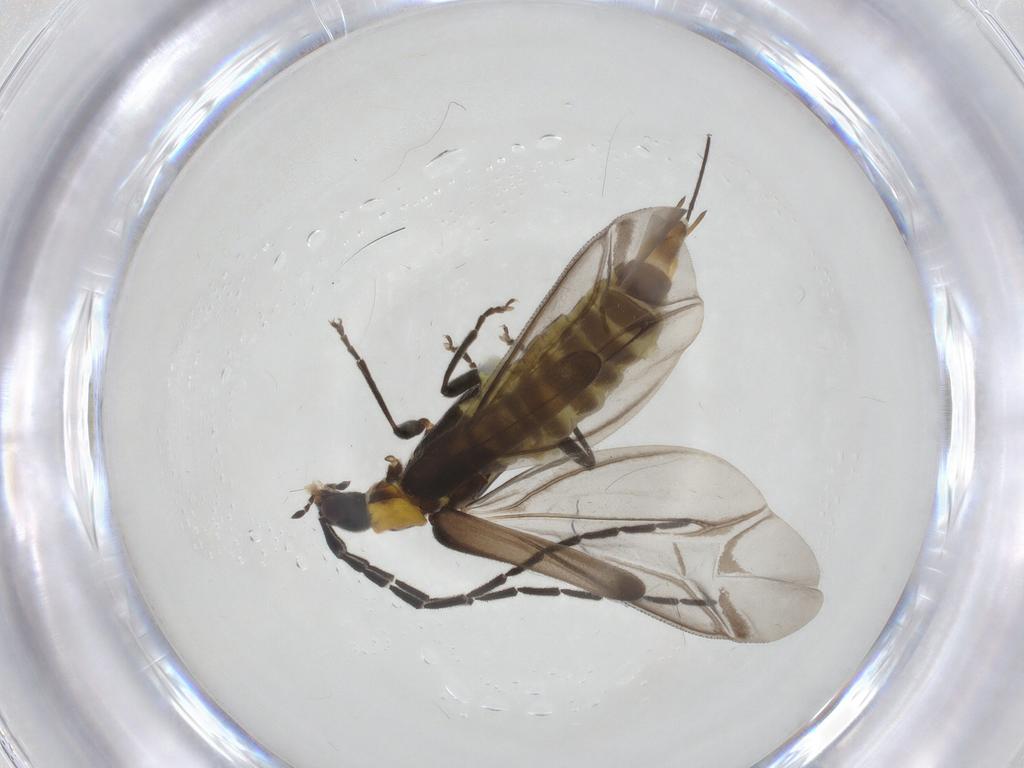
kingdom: Animalia
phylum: Arthropoda
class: Insecta
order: Coleoptera
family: Cantharidae
